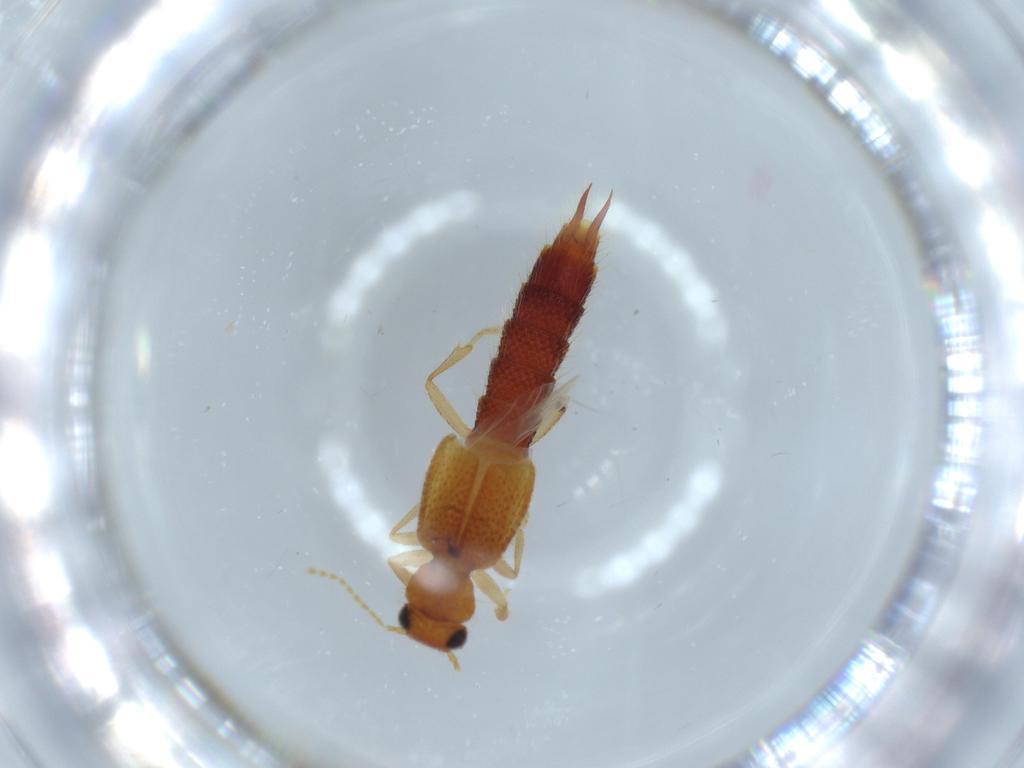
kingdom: Animalia
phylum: Arthropoda
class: Insecta
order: Coleoptera
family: Staphylinidae
